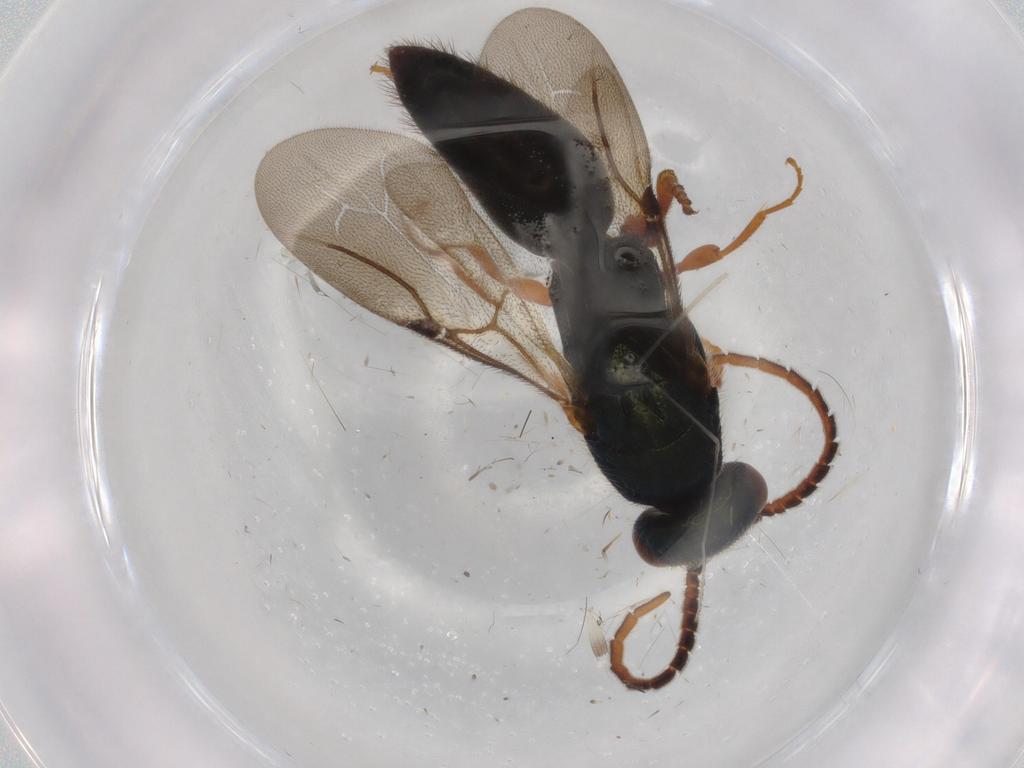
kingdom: Animalia
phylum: Arthropoda
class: Insecta
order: Hymenoptera
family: Bethylidae
